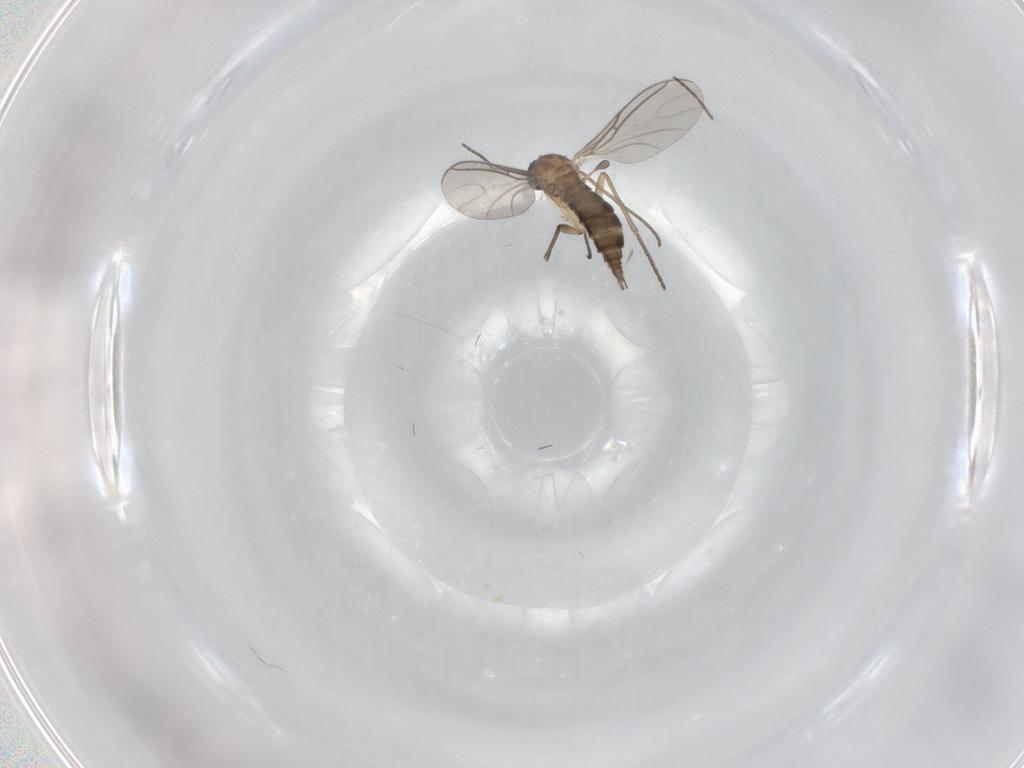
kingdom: Animalia
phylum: Arthropoda
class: Insecta
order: Diptera
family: Sciaridae
